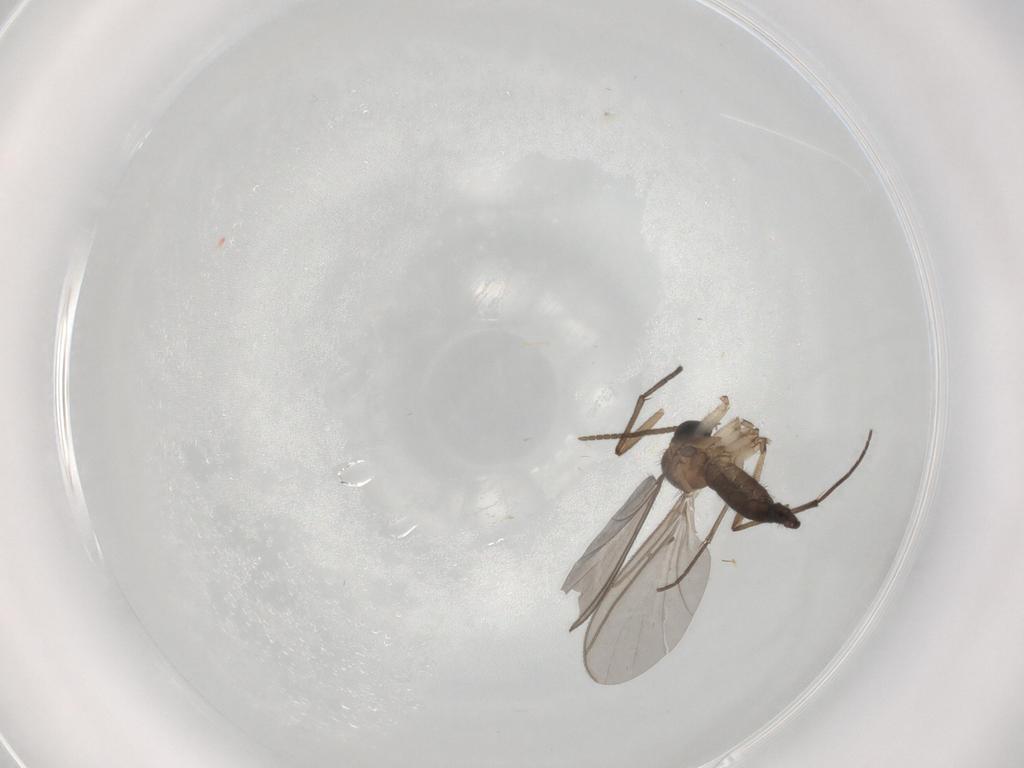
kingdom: Animalia
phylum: Arthropoda
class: Insecta
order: Diptera
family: Sciaridae
